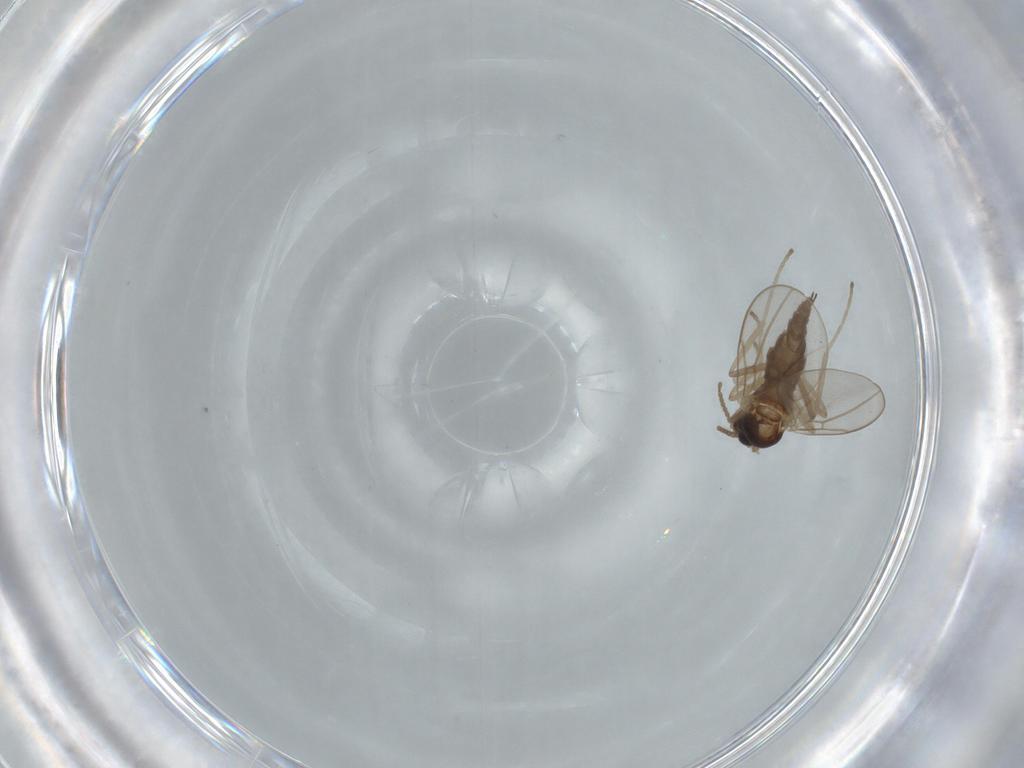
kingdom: Animalia
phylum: Arthropoda
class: Insecta
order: Diptera
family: Cecidomyiidae
